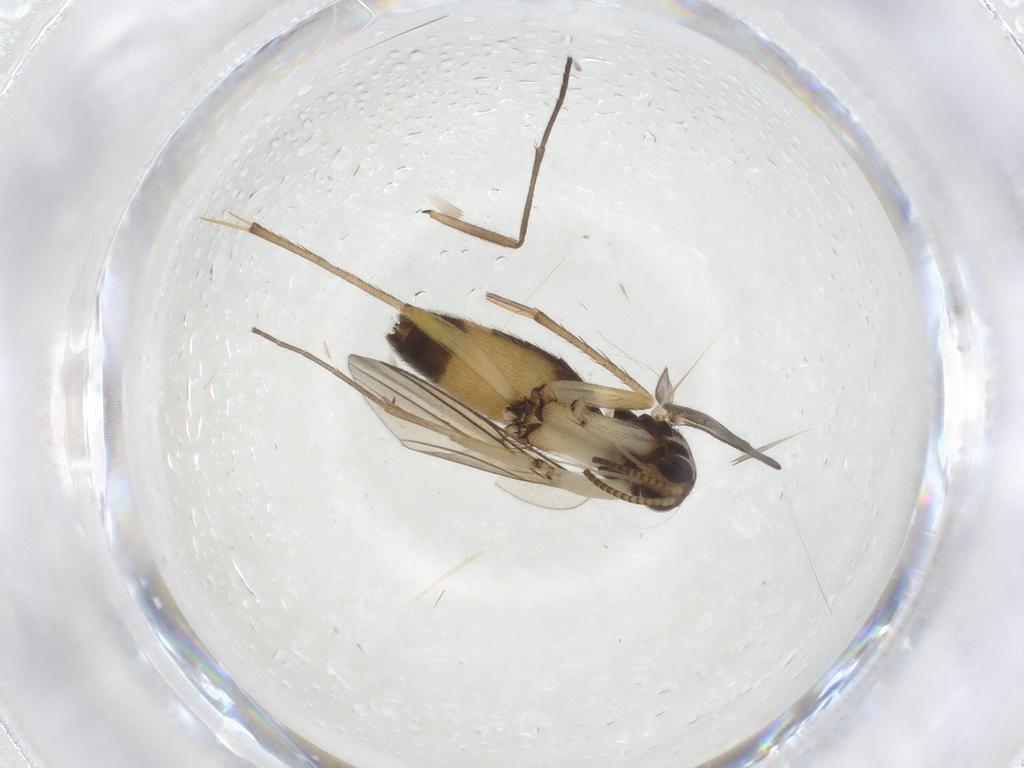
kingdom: Animalia
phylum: Arthropoda
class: Insecta
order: Diptera
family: Mycetophilidae
